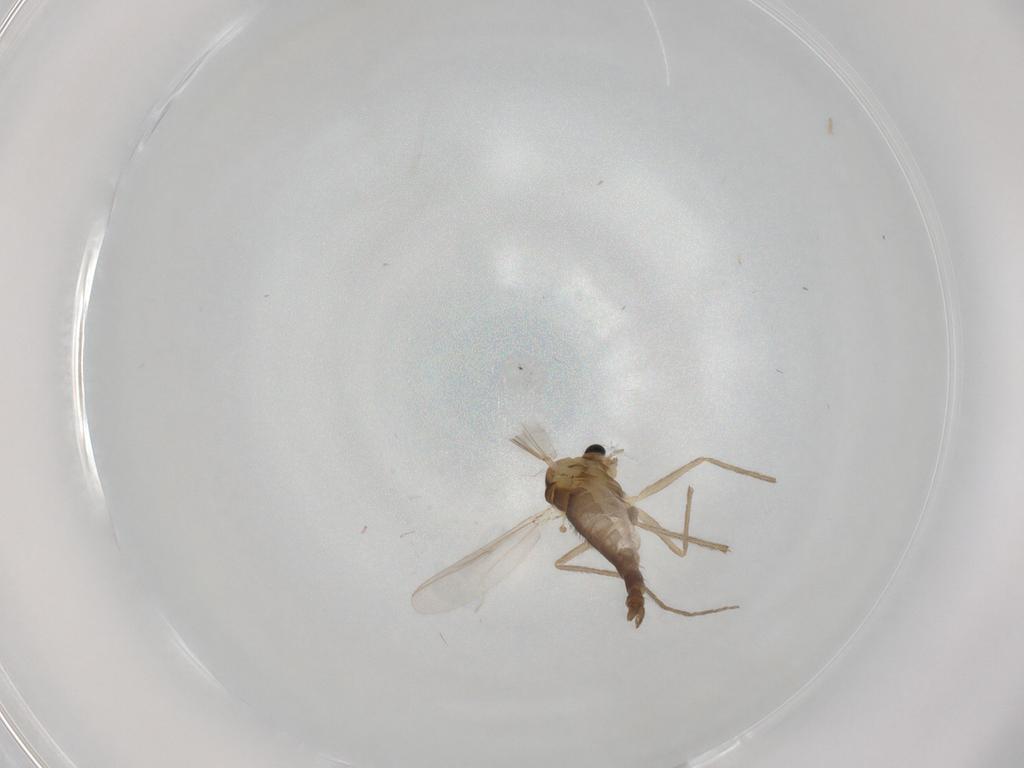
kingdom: Animalia
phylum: Arthropoda
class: Insecta
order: Diptera
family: Chironomidae
